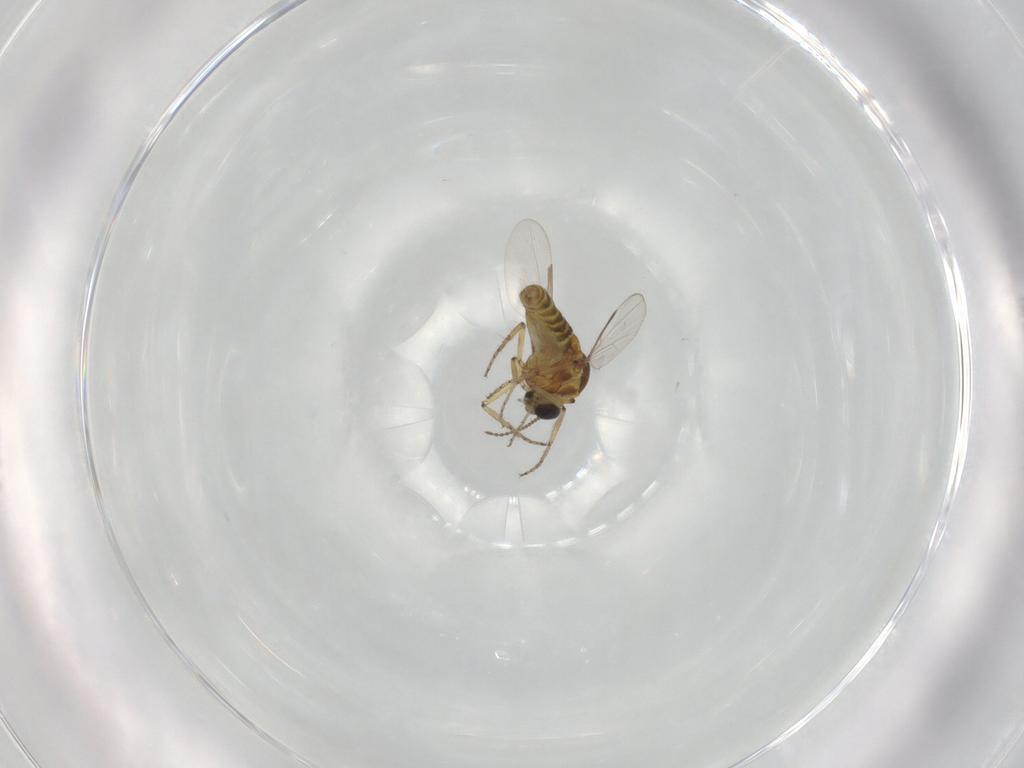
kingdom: Animalia
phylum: Arthropoda
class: Insecta
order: Diptera
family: Ceratopogonidae
